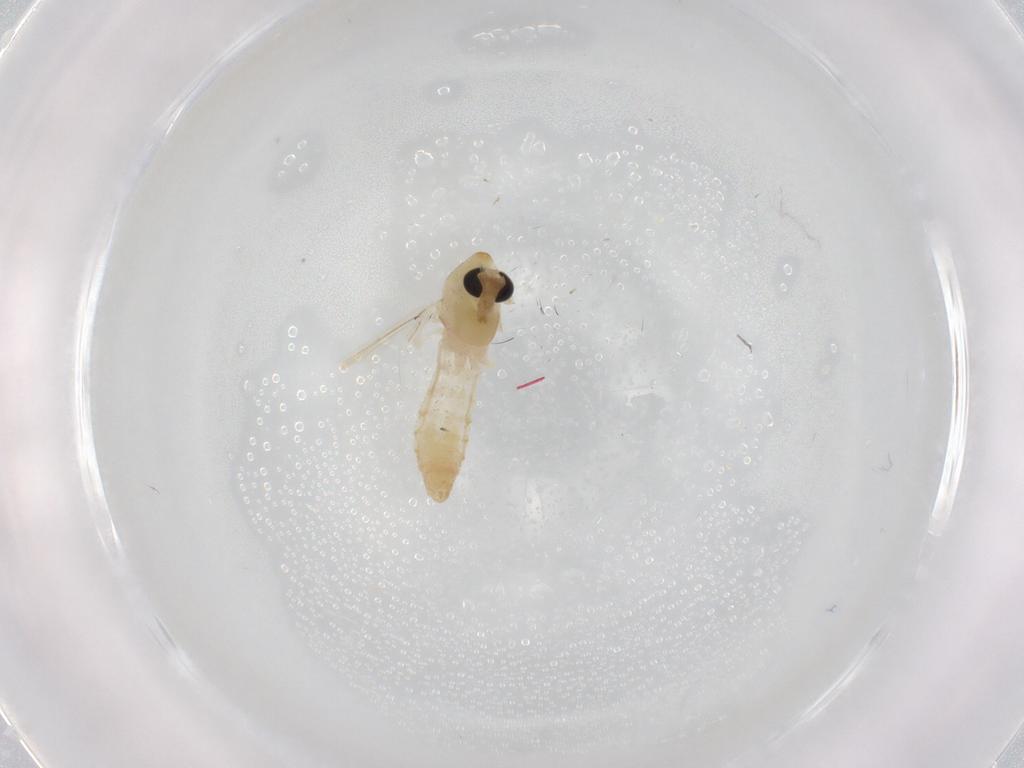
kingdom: Animalia
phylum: Arthropoda
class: Insecta
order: Diptera
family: Chironomidae
